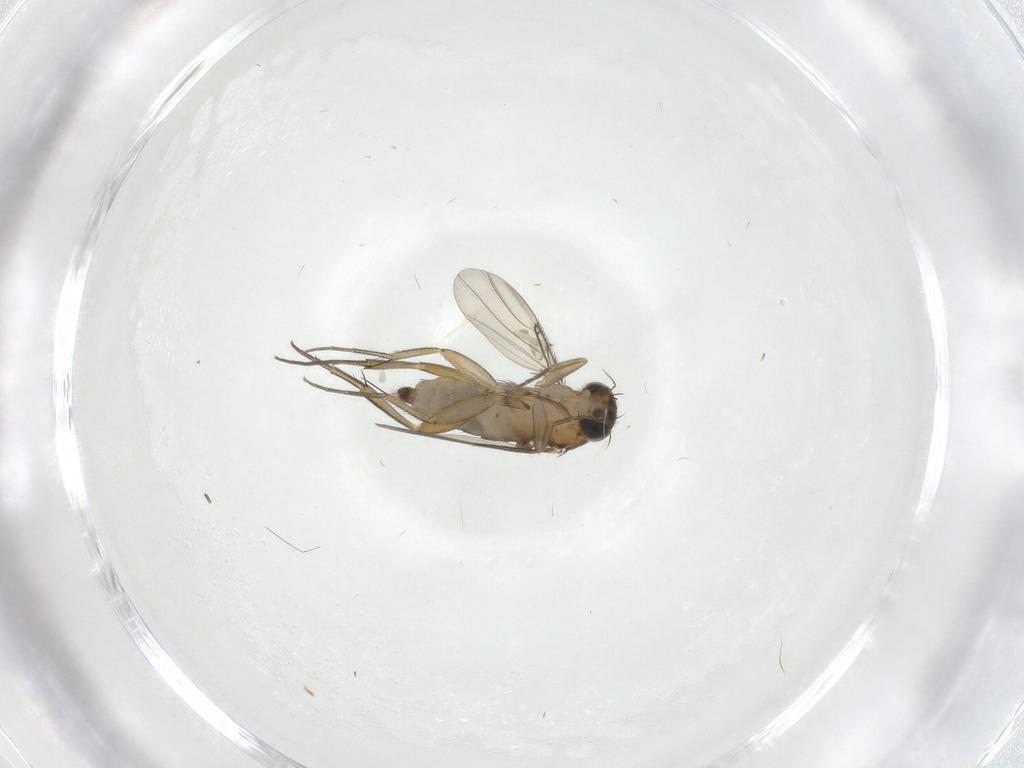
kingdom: Animalia
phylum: Arthropoda
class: Insecta
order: Diptera
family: Phoridae
